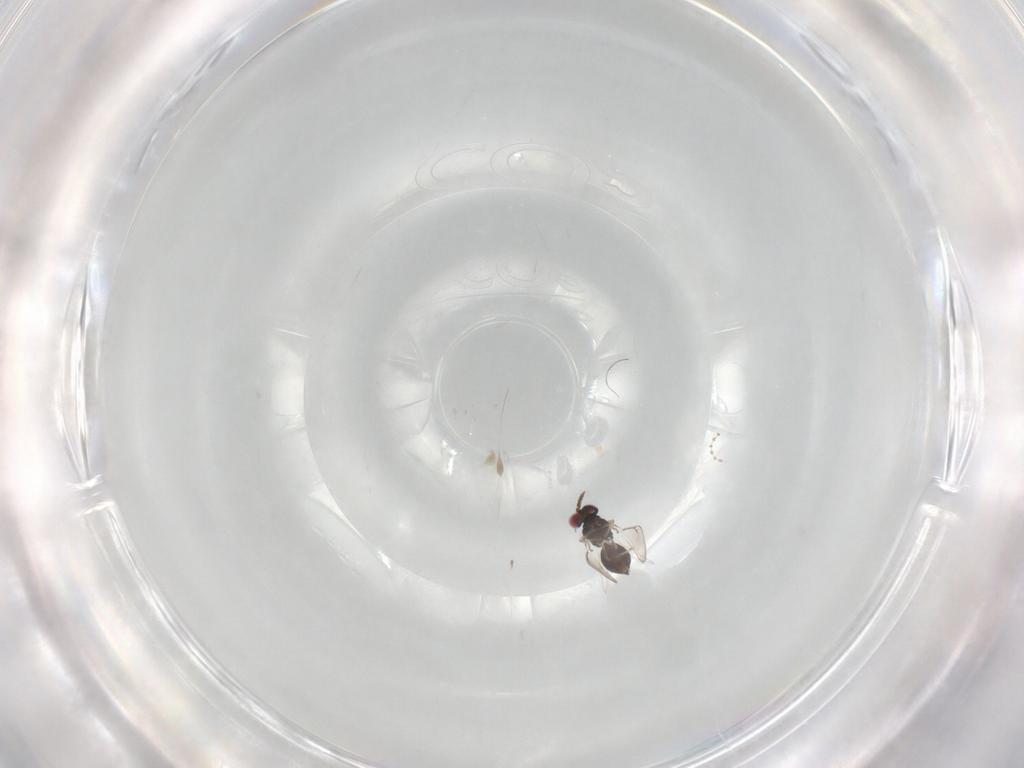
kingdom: Animalia
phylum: Arthropoda
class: Insecta
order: Hymenoptera
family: Eulophidae
